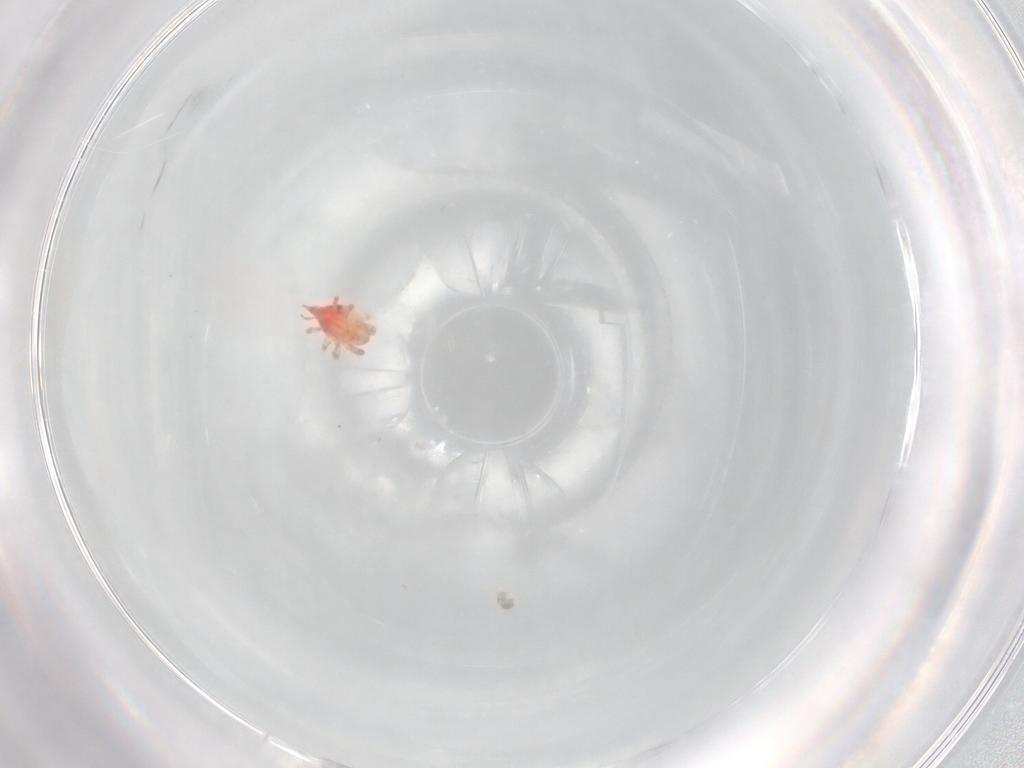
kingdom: Animalia
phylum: Arthropoda
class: Arachnida
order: Trombidiformes
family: Bdellidae
